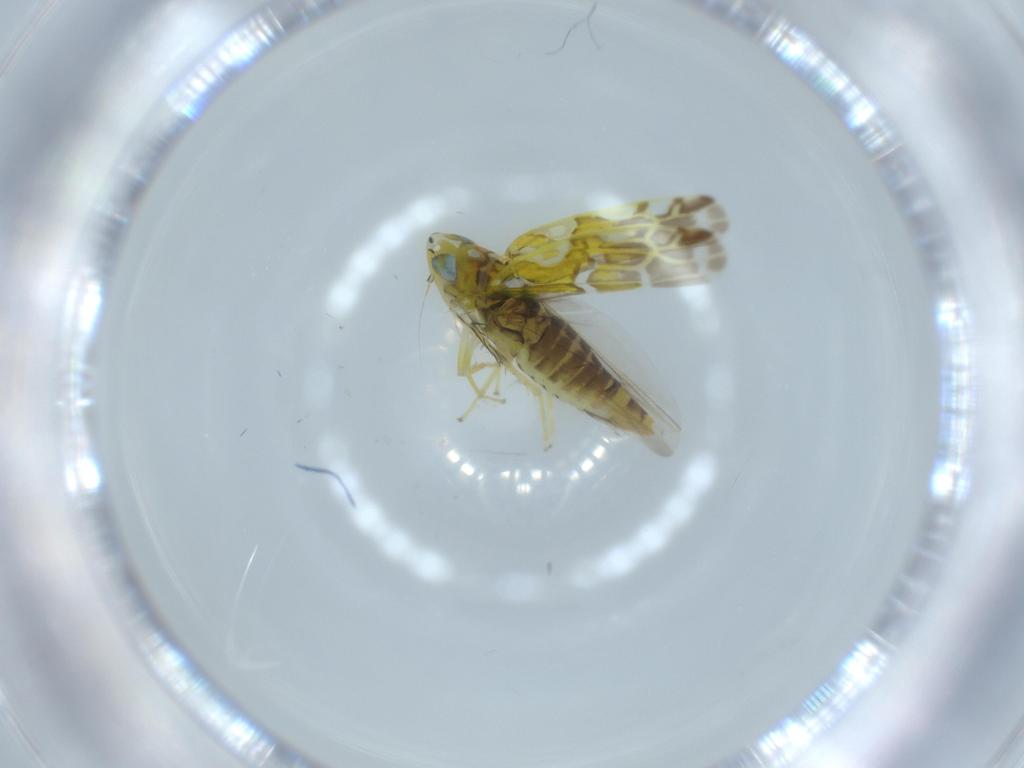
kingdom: Animalia
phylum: Arthropoda
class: Insecta
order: Hemiptera
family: Cicadellidae
